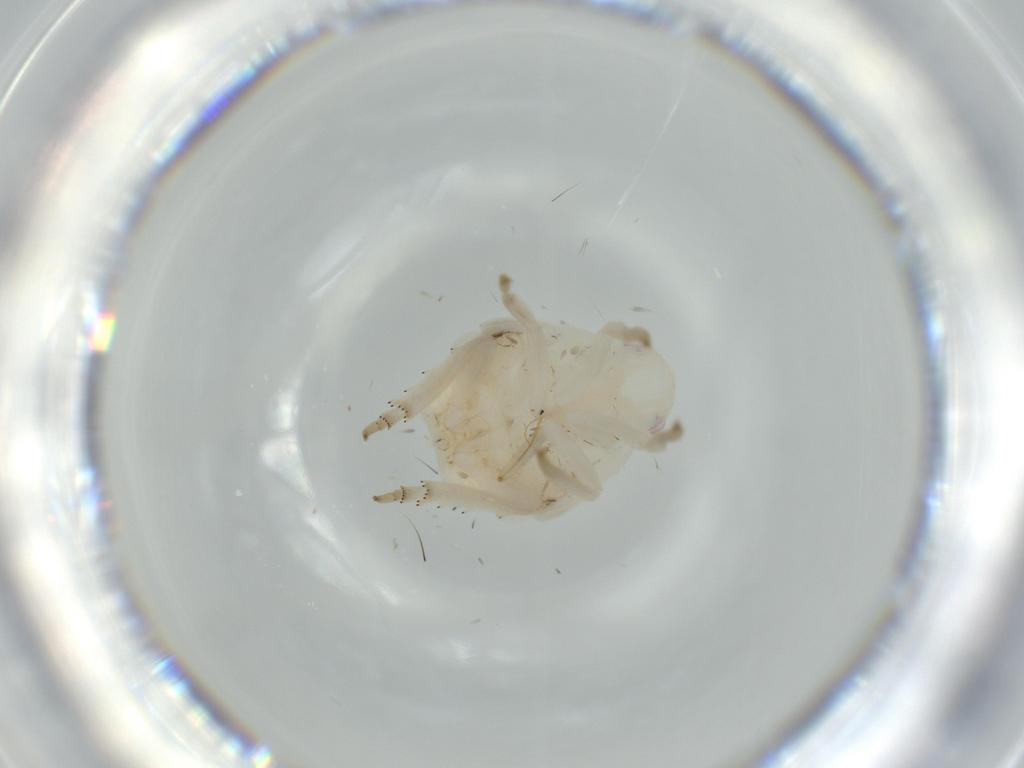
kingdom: Animalia
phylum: Arthropoda
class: Insecta
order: Hemiptera
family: Flatidae
